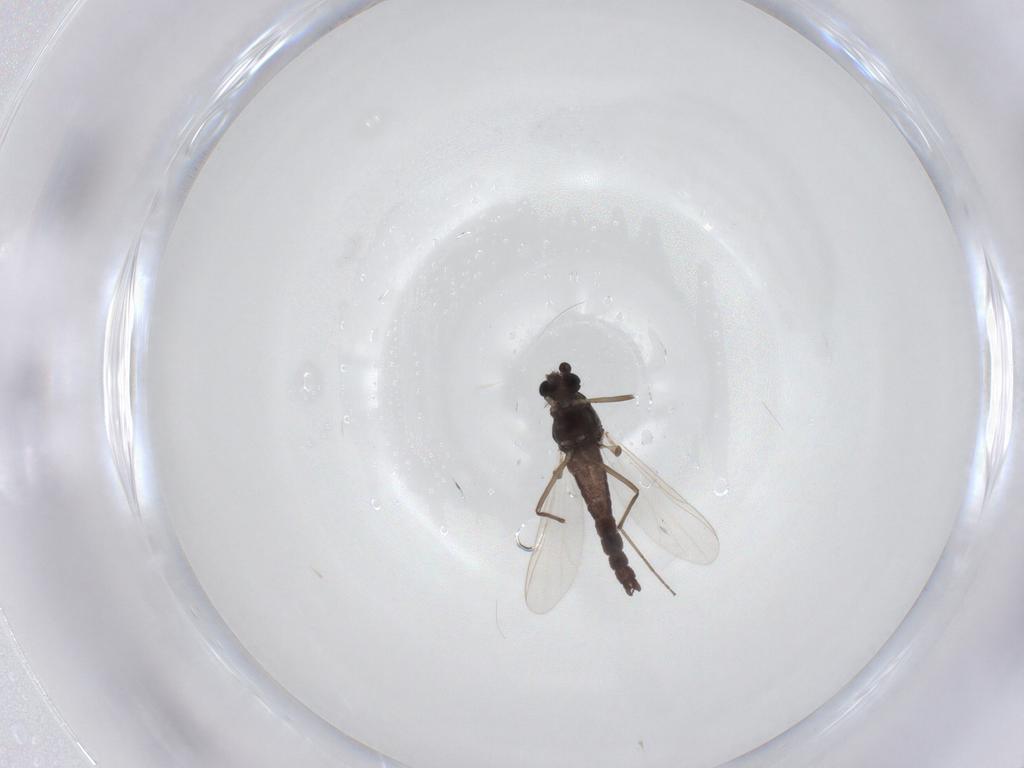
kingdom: Animalia
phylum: Arthropoda
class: Insecta
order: Diptera
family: Chironomidae
